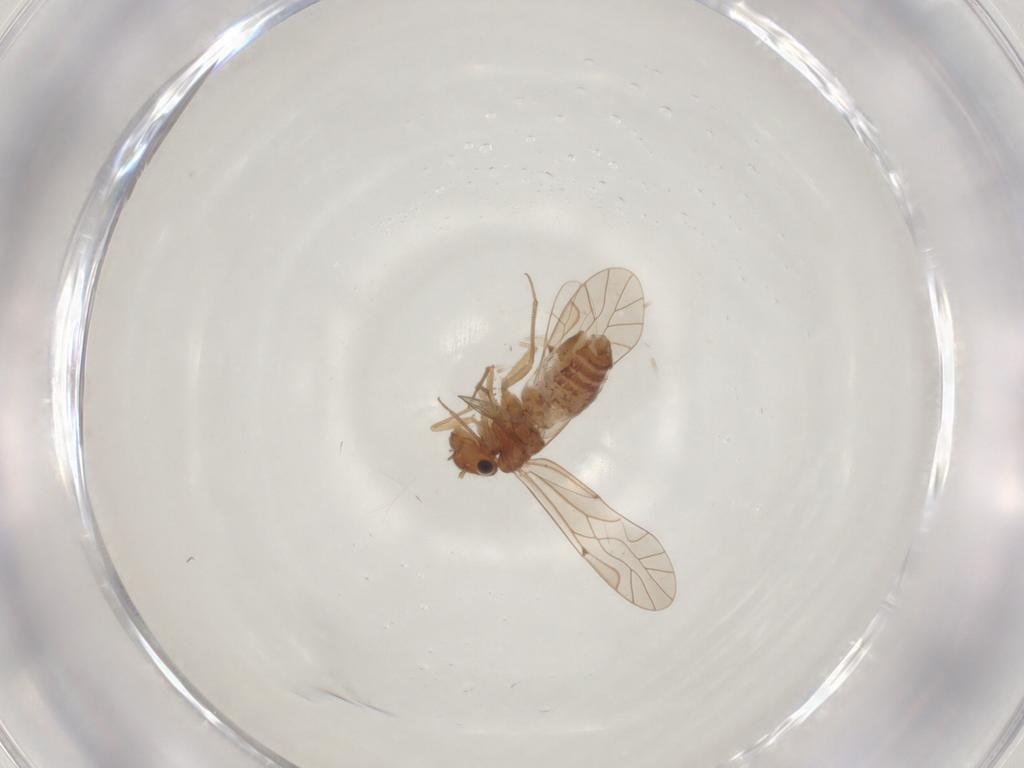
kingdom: Animalia
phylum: Arthropoda
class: Insecta
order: Psocodea
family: Lachesillidae
